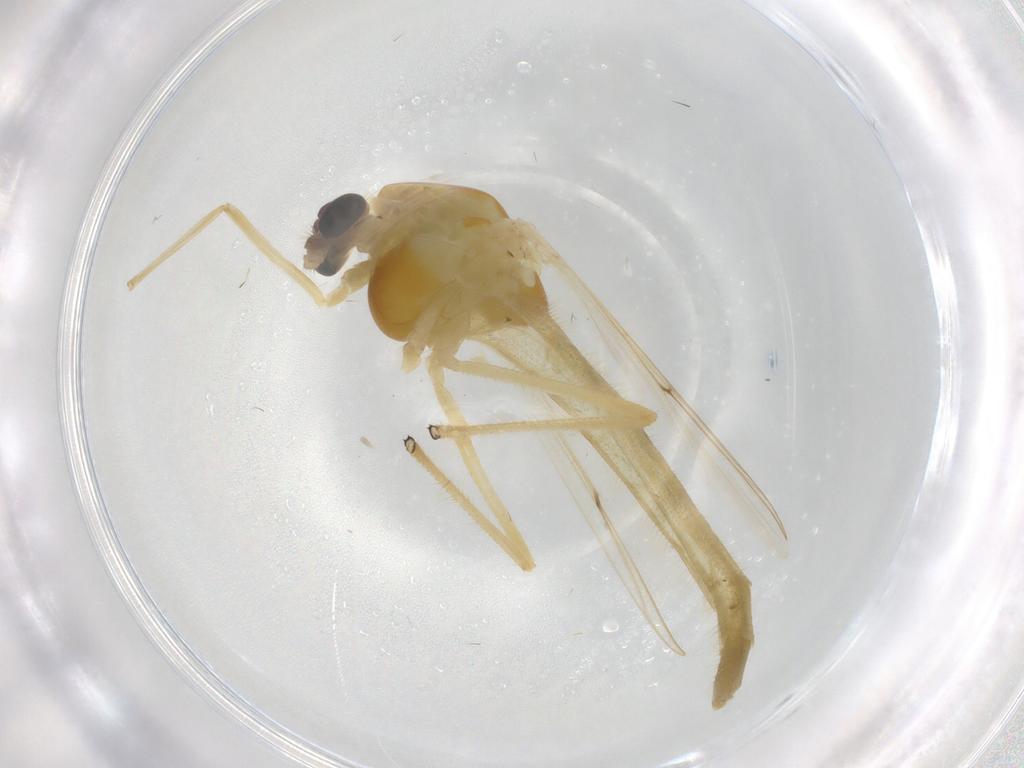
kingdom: Animalia
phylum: Arthropoda
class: Insecta
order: Diptera
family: Chironomidae
